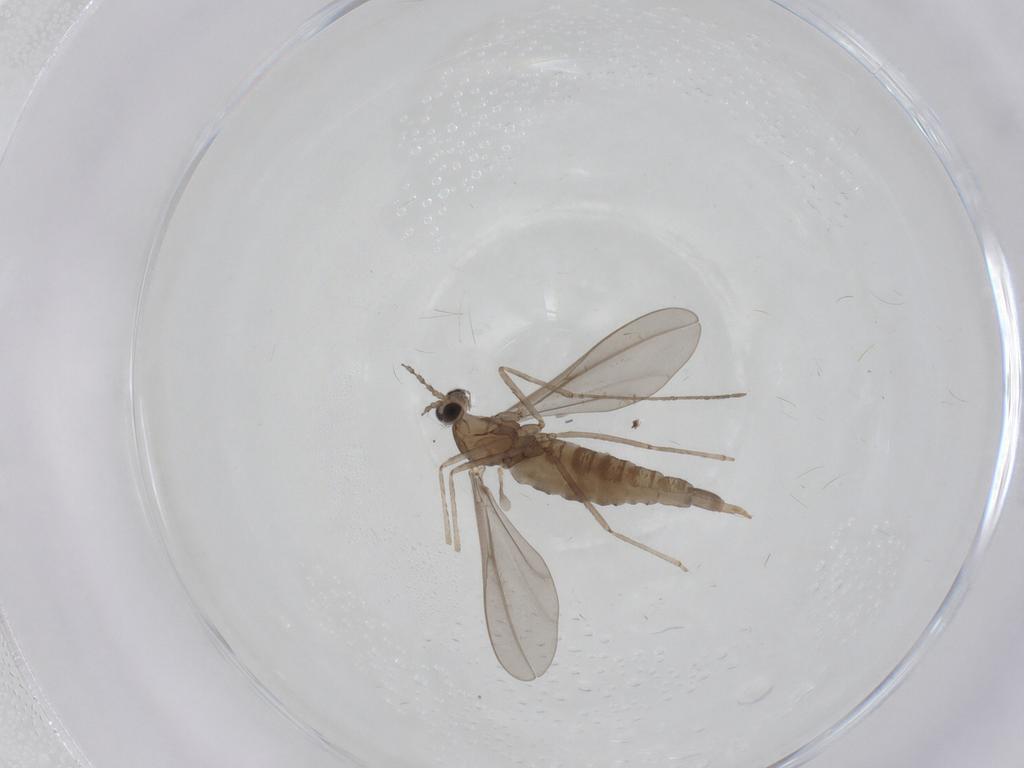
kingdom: Animalia
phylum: Arthropoda
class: Insecta
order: Diptera
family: Cecidomyiidae
